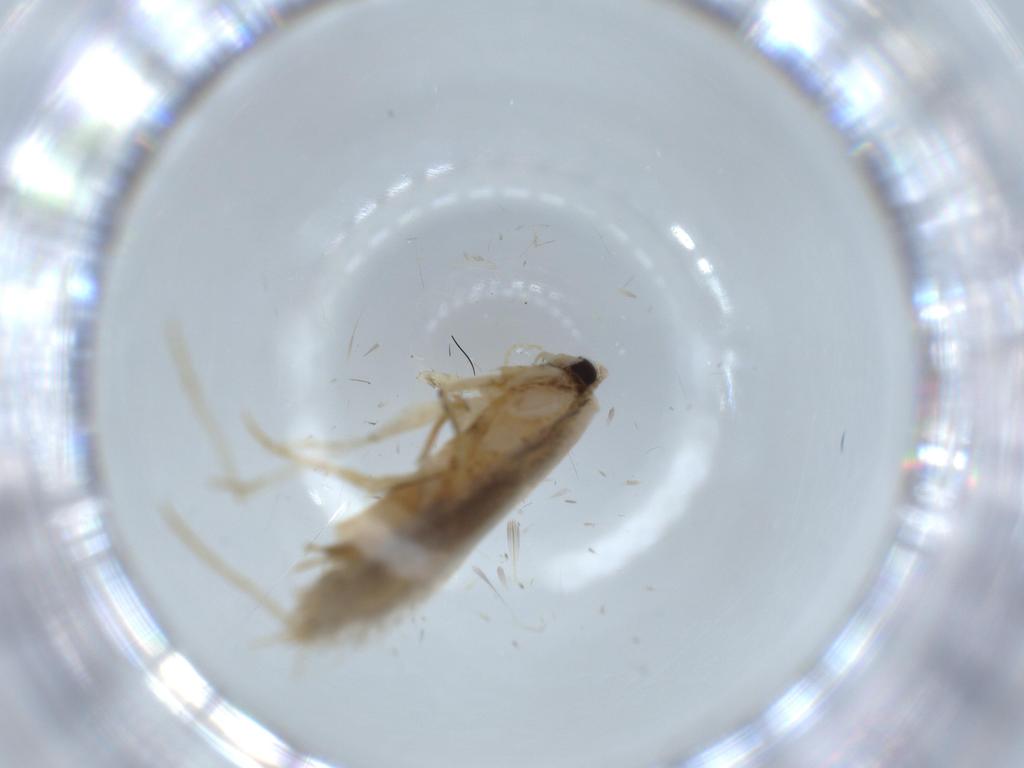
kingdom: Animalia
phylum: Arthropoda
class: Insecta
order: Lepidoptera
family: Tineidae
